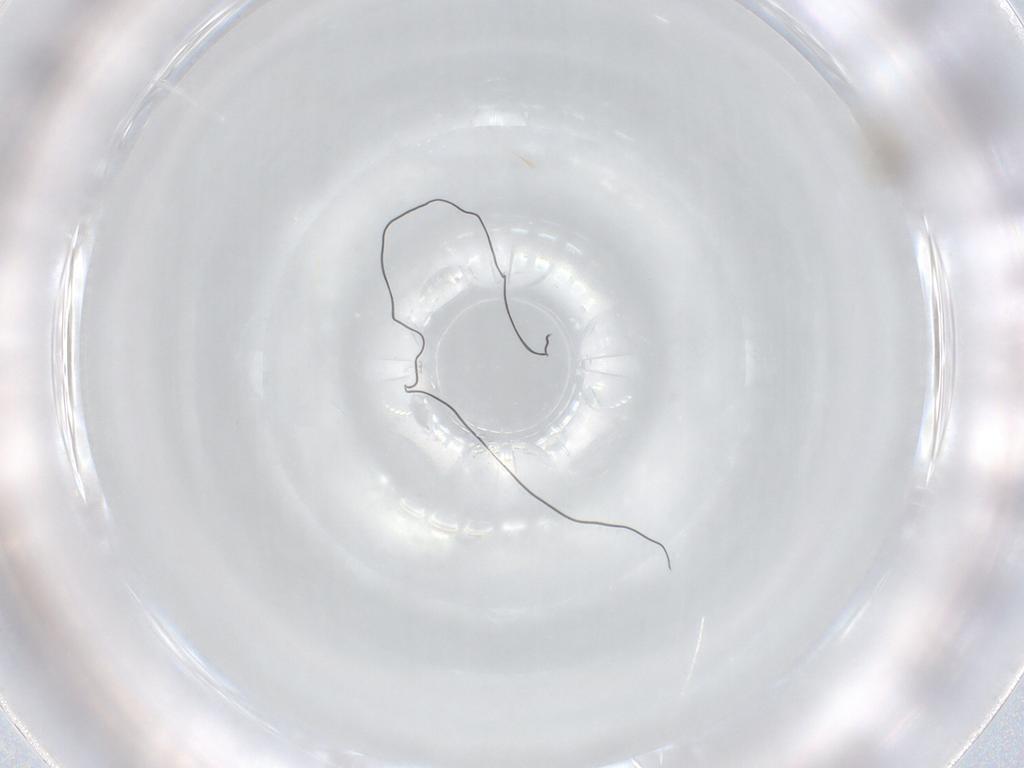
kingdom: Animalia
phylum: Arthropoda
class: Insecta
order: Diptera
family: Cecidomyiidae
